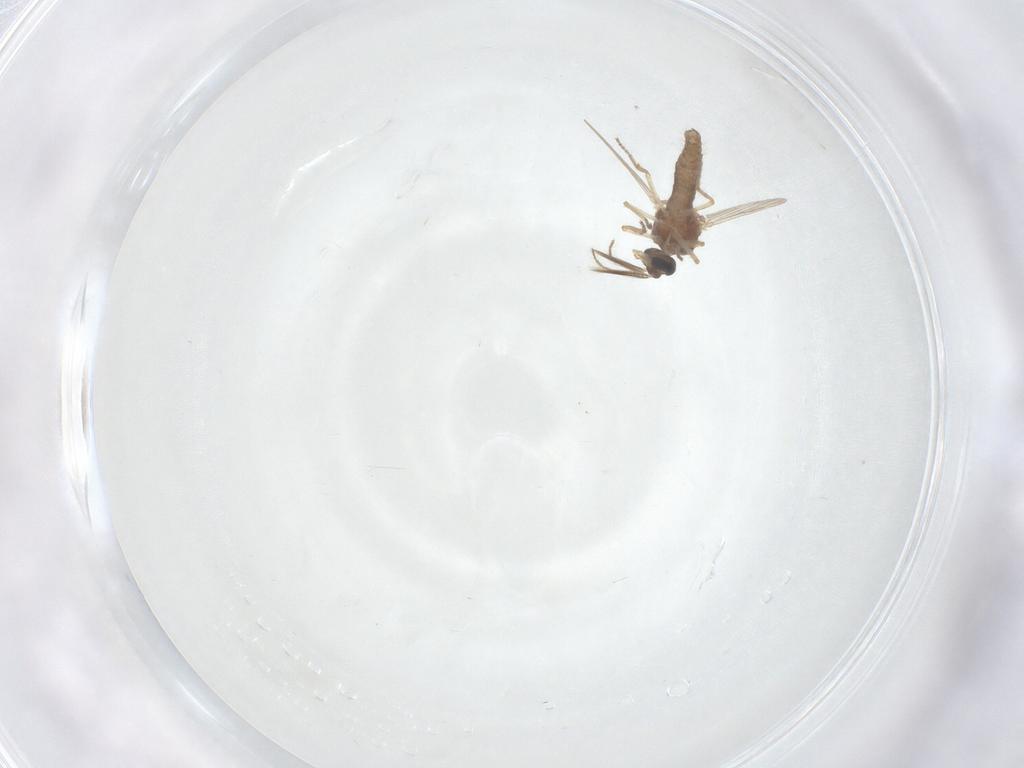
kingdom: Animalia
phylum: Arthropoda
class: Insecta
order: Diptera
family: Ceratopogonidae
